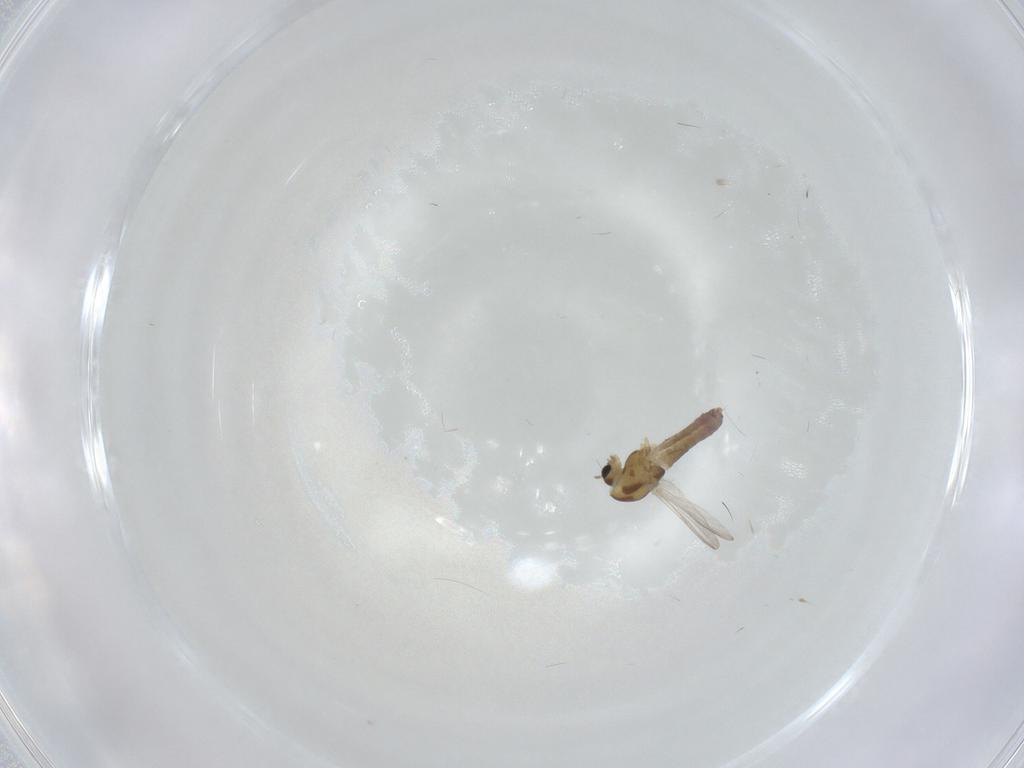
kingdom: Animalia
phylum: Arthropoda
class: Insecta
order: Diptera
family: Chironomidae
